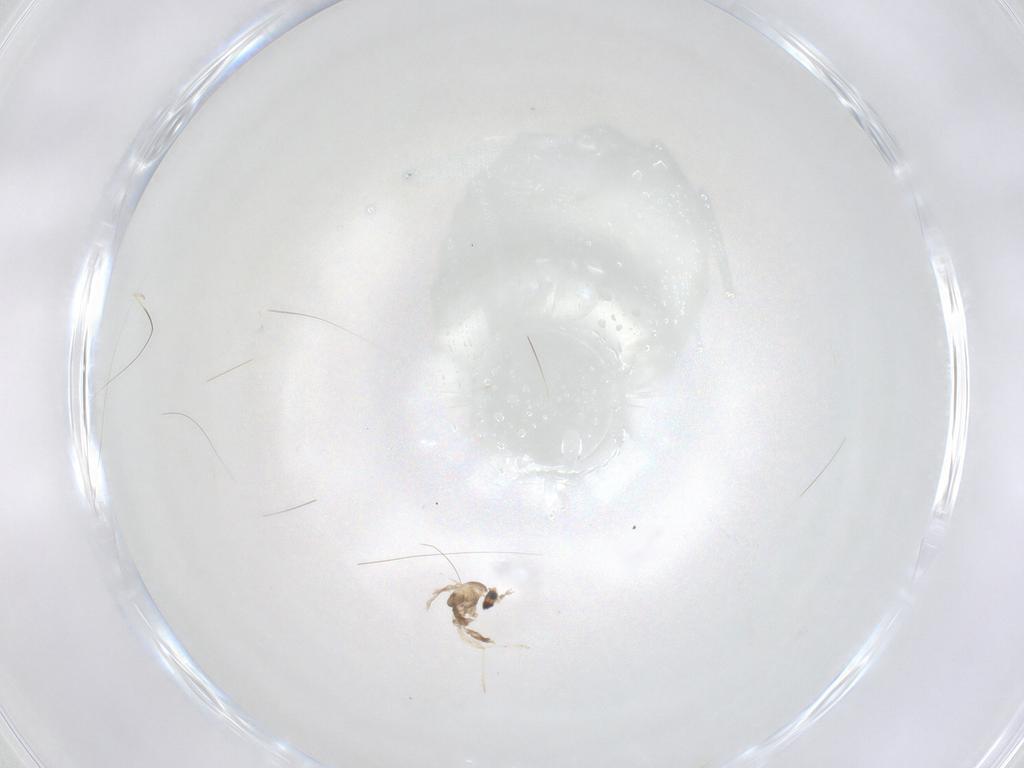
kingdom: Animalia
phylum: Arthropoda
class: Insecta
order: Diptera
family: Cecidomyiidae
